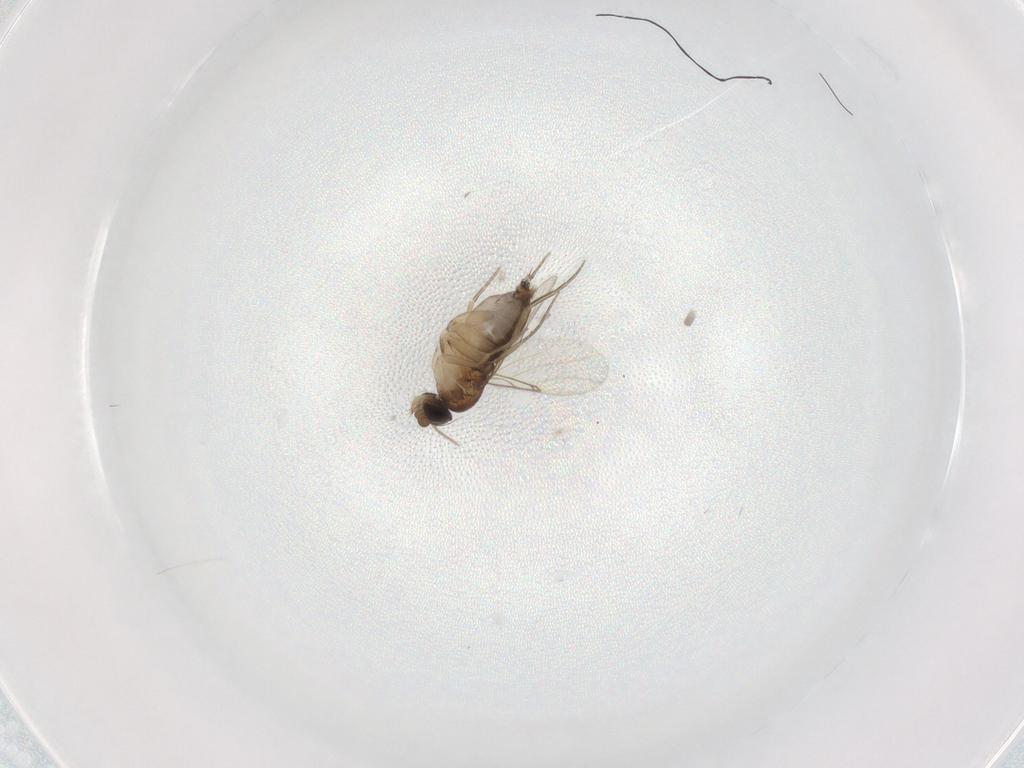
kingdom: Animalia
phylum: Arthropoda
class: Insecta
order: Diptera
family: Phoridae
